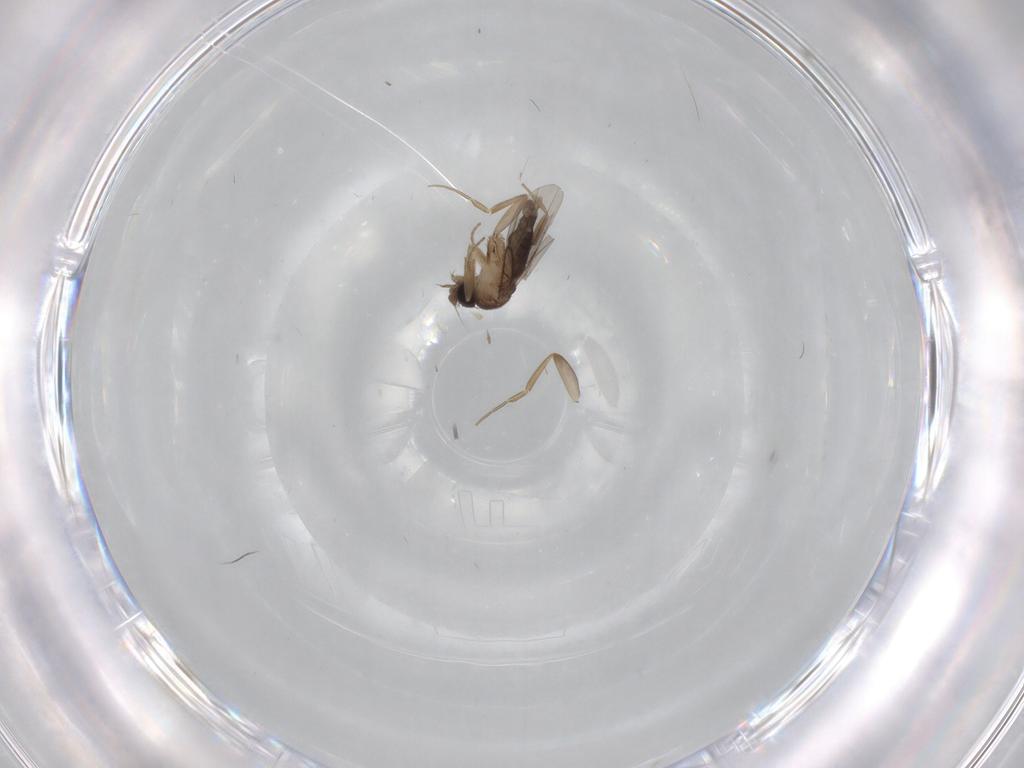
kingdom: Animalia
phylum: Arthropoda
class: Insecta
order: Diptera
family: Phoridae
